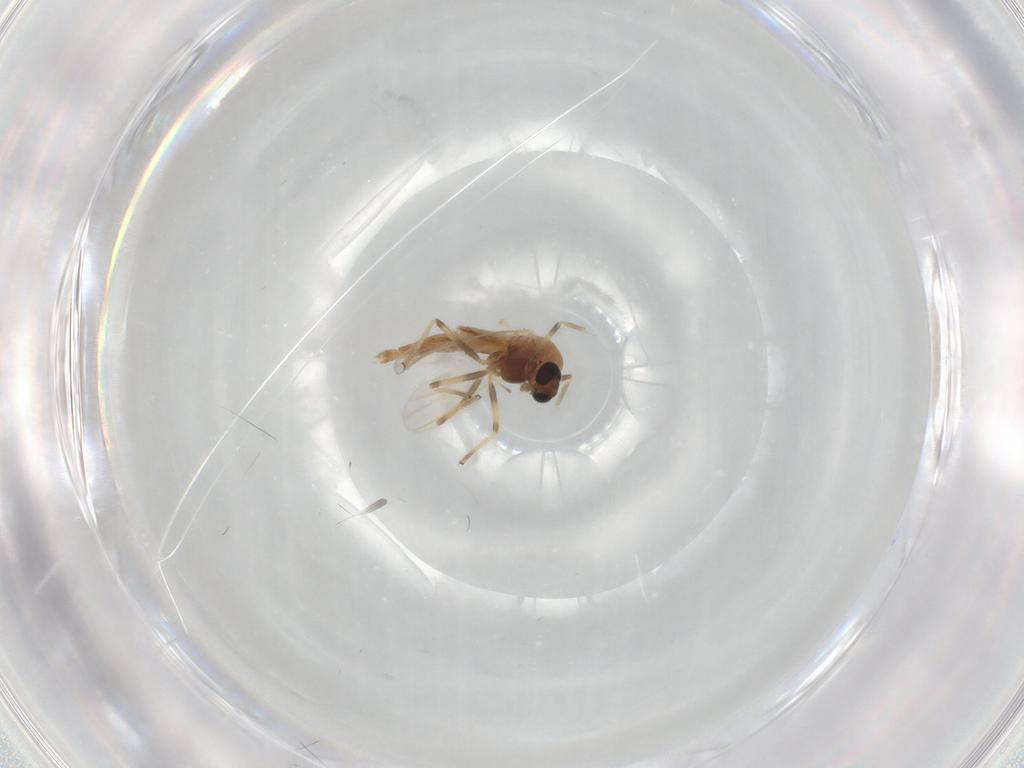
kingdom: Animalia
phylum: Arthropoda
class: Insecta
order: Diptera
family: Chironomidae
